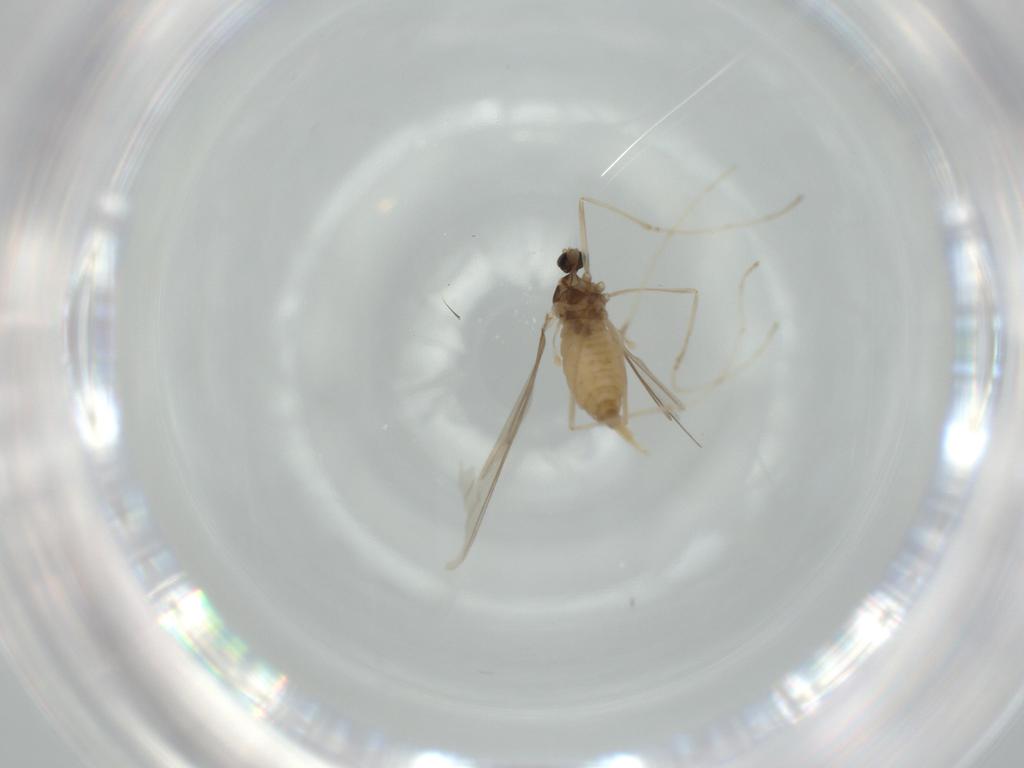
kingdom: Animalia
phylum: Arthropoda
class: Insecta
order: Diptera
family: Cecidomyiidae
